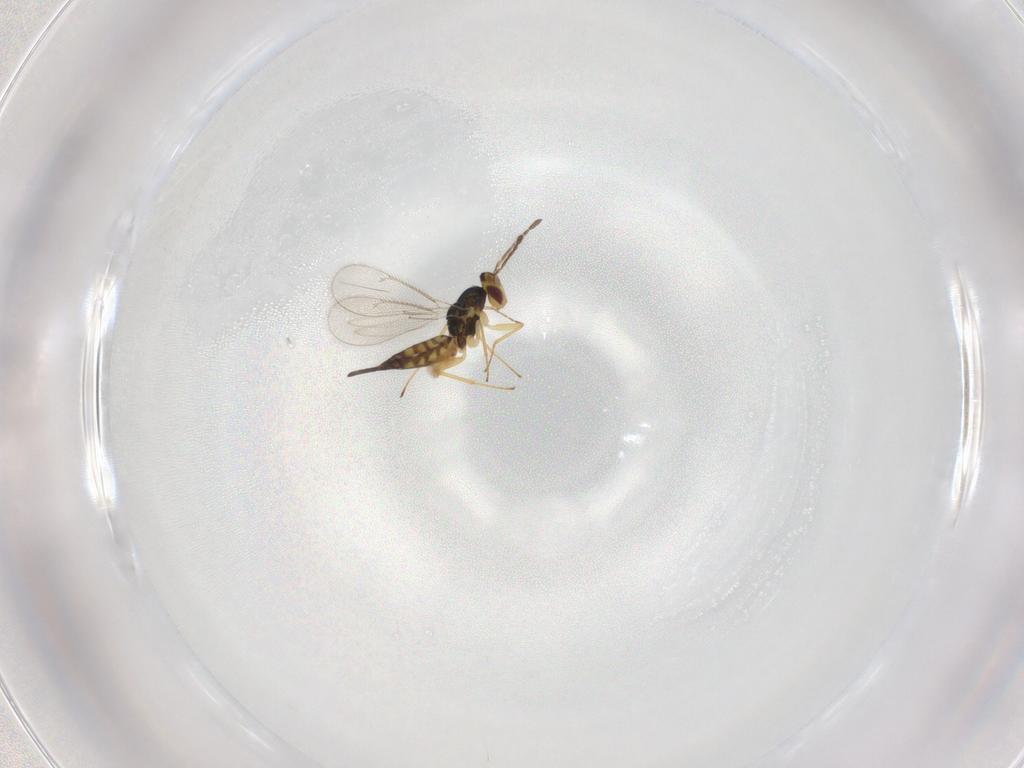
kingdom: Animalia
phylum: Arthropoda
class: Insecta
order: Hymenoptera
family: Eulophidae
